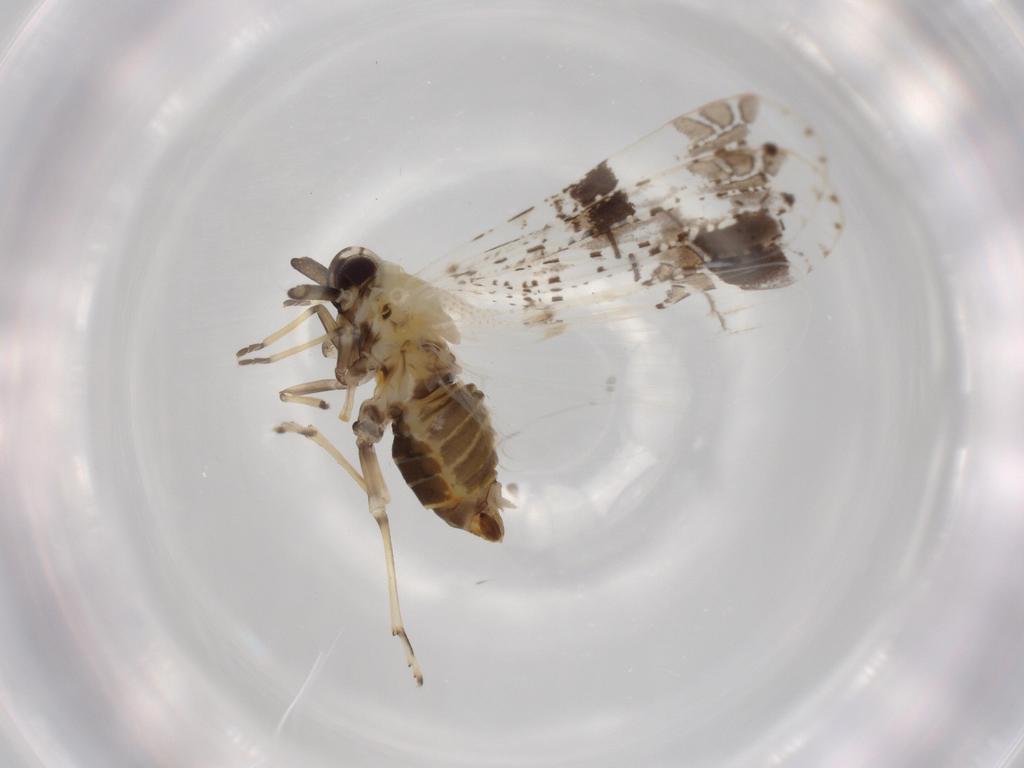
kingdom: Animalia
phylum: Arthropoda
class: Insecta
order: Hemiptera
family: Derbidae
